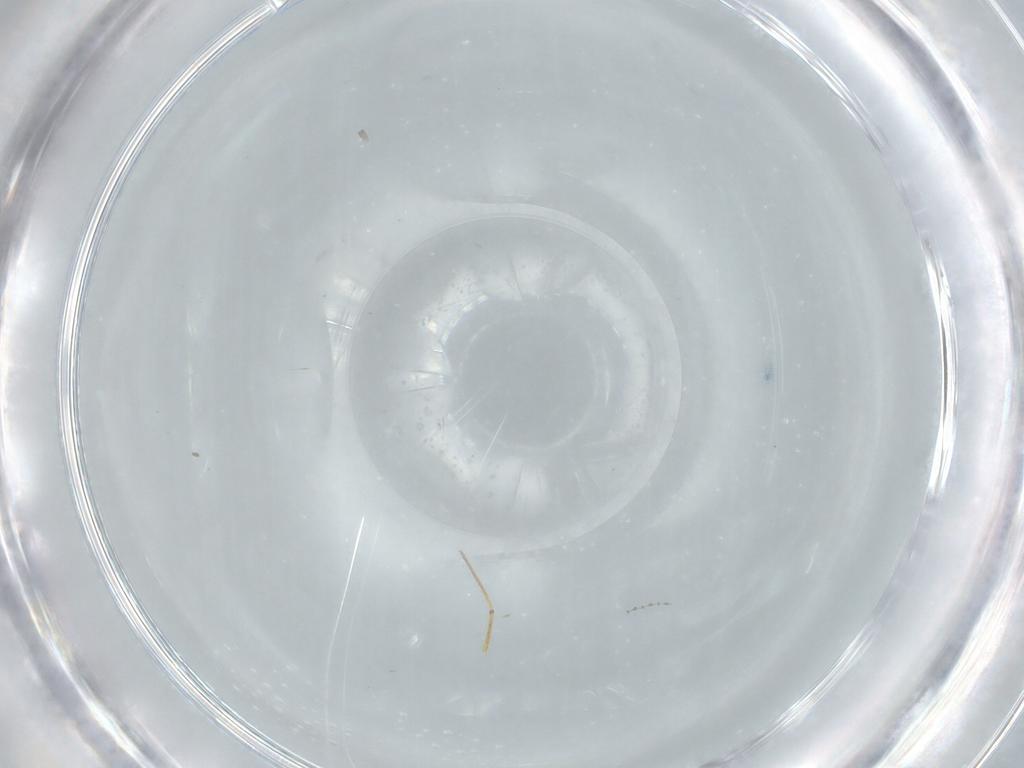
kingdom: Animalia
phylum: Arthropoda
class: Collembola
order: Entomobryomorpha
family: Paronellidae
